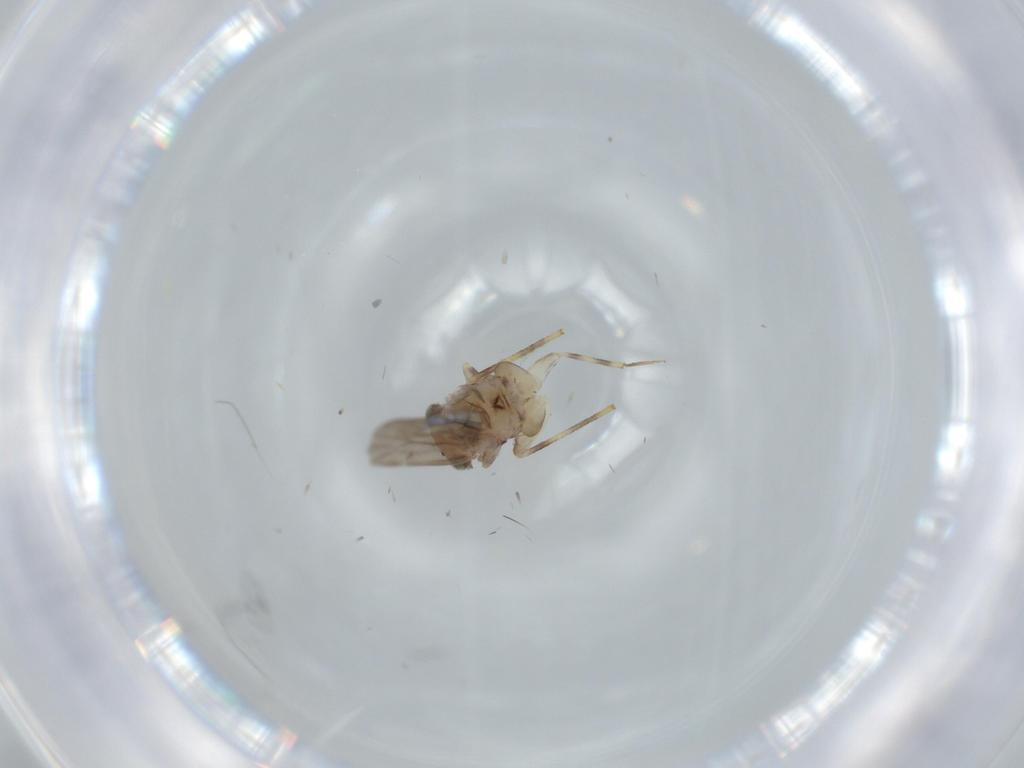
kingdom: Animalia
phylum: Arthropoda
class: Insecta
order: Psocodea
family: Lepidopsocidae
